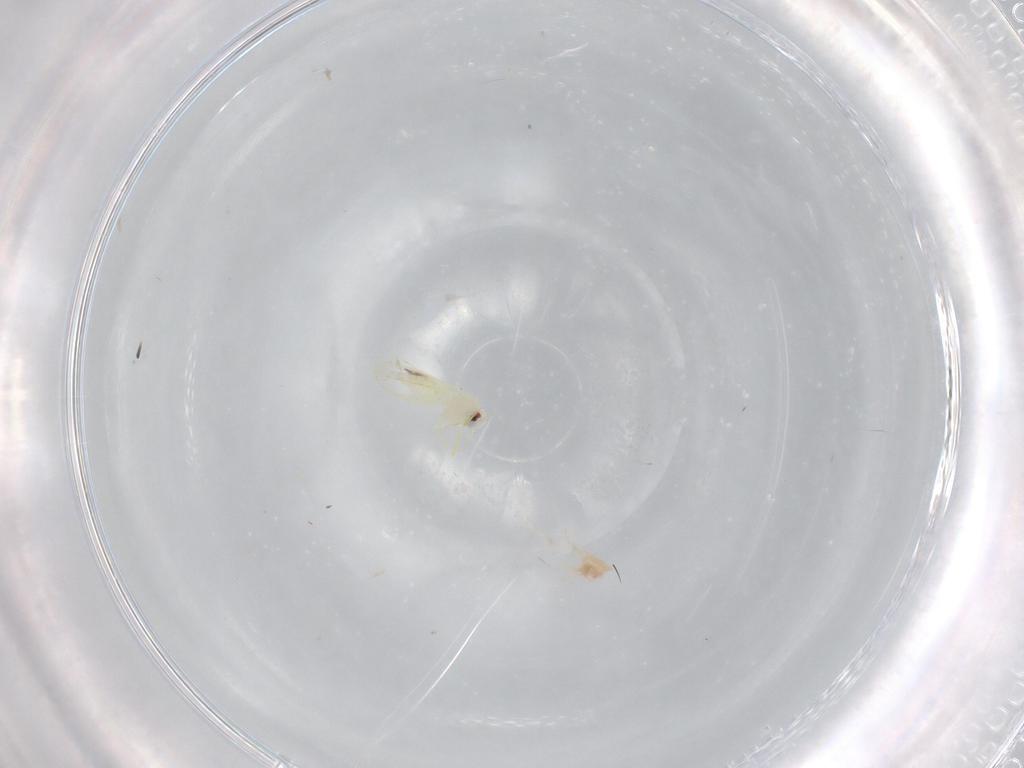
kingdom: Animalia
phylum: Arthropoda
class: Insecta
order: Hemiptera
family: Aleyrodidae
